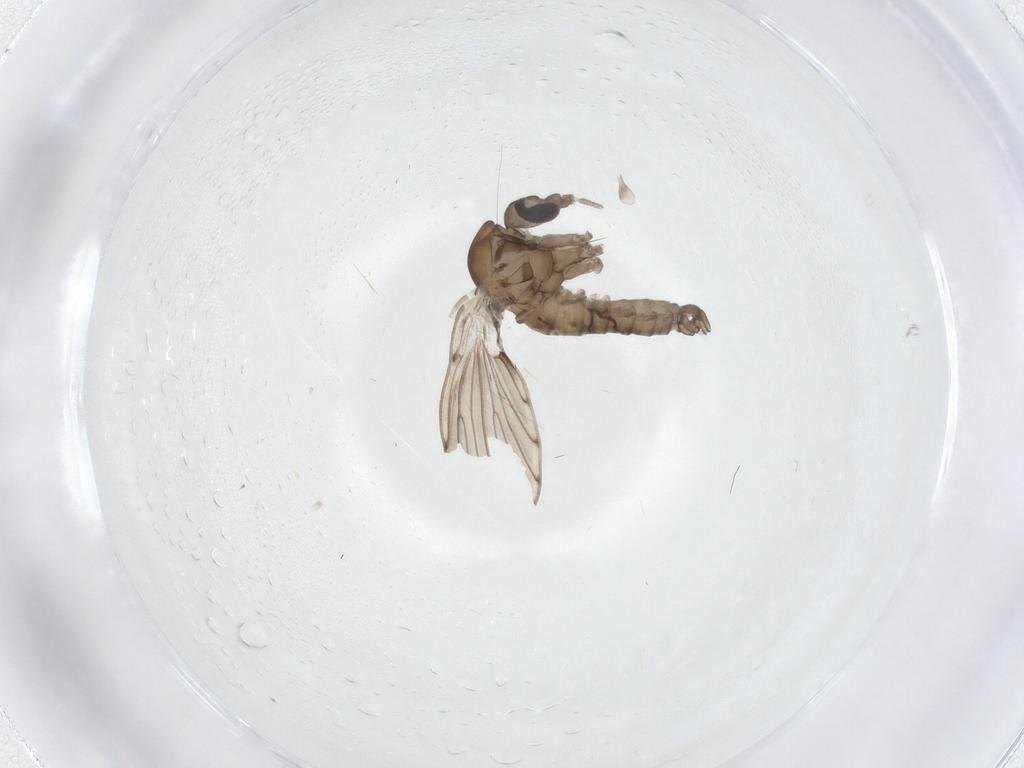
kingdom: Animalia
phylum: Arthropoda
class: Insecta
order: Diptera
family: Psychodidae
